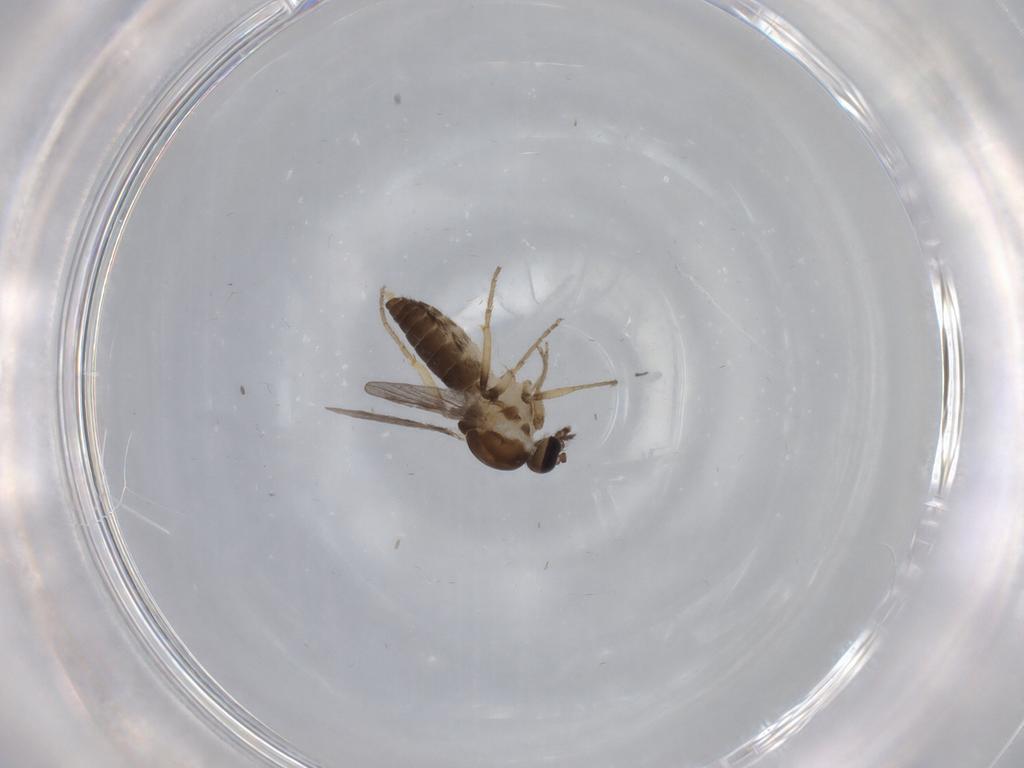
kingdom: Animalia
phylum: Arthropoda
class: Insecta
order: Diptera
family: Ceratopogonidae
